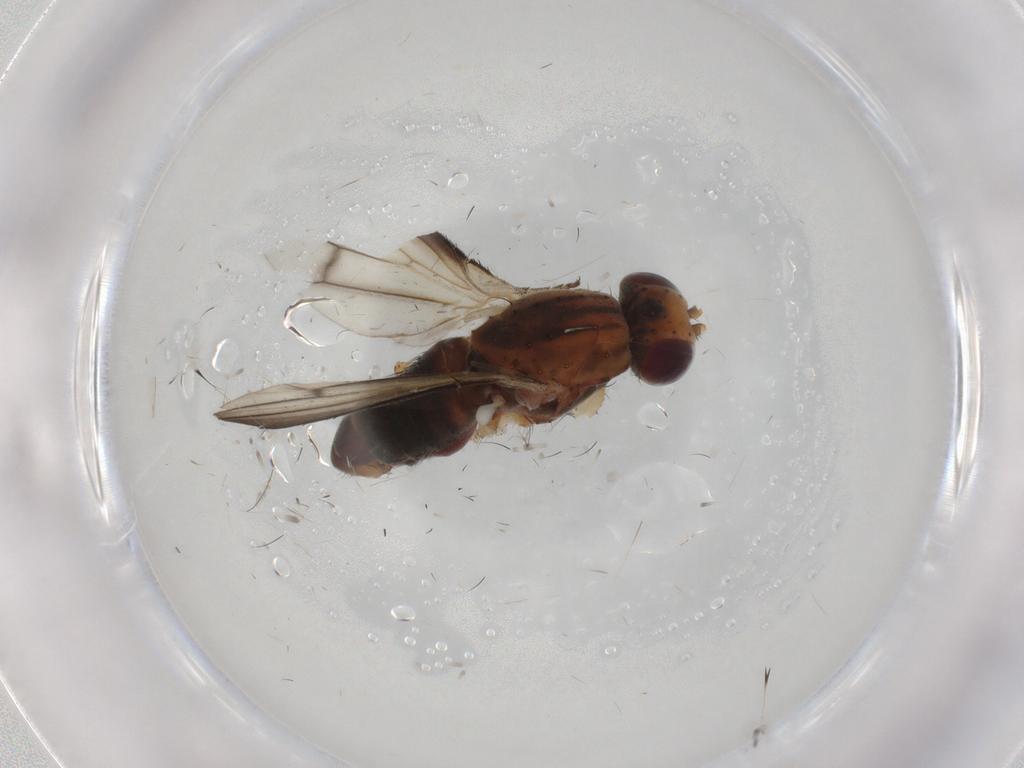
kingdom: Animalia
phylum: Arthropoda
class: Insecta
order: Diptera
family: Heleomyzidae
